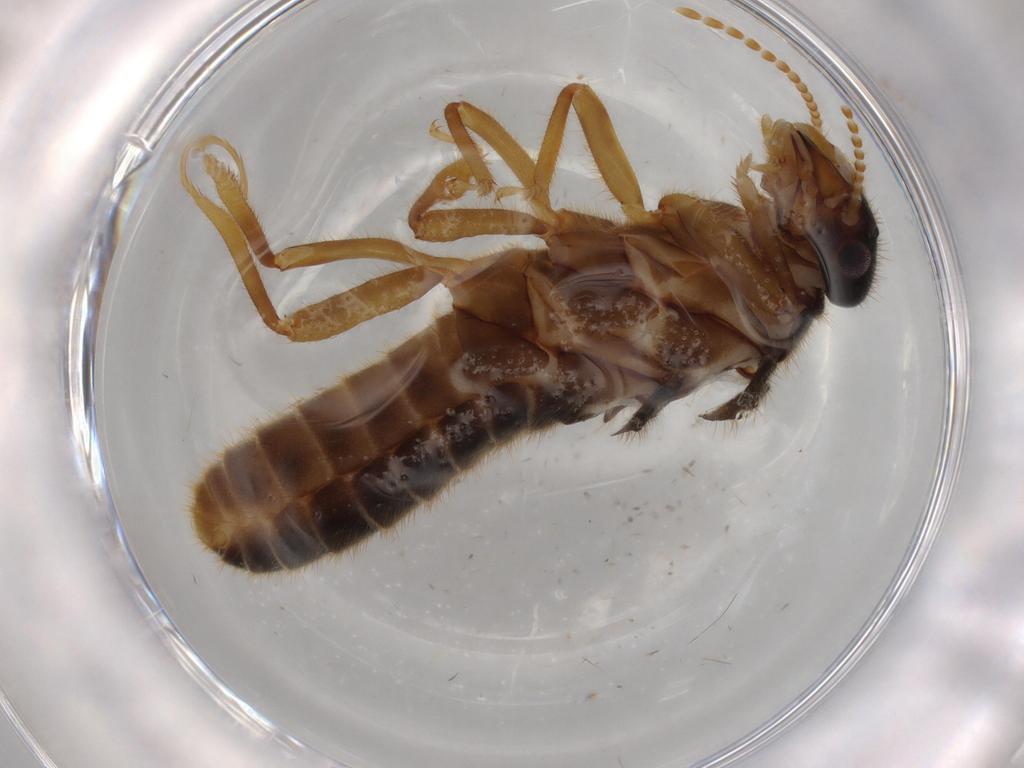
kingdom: Animalia
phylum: Arthropoda
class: Insecta
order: Blattodea
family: Termitidae
